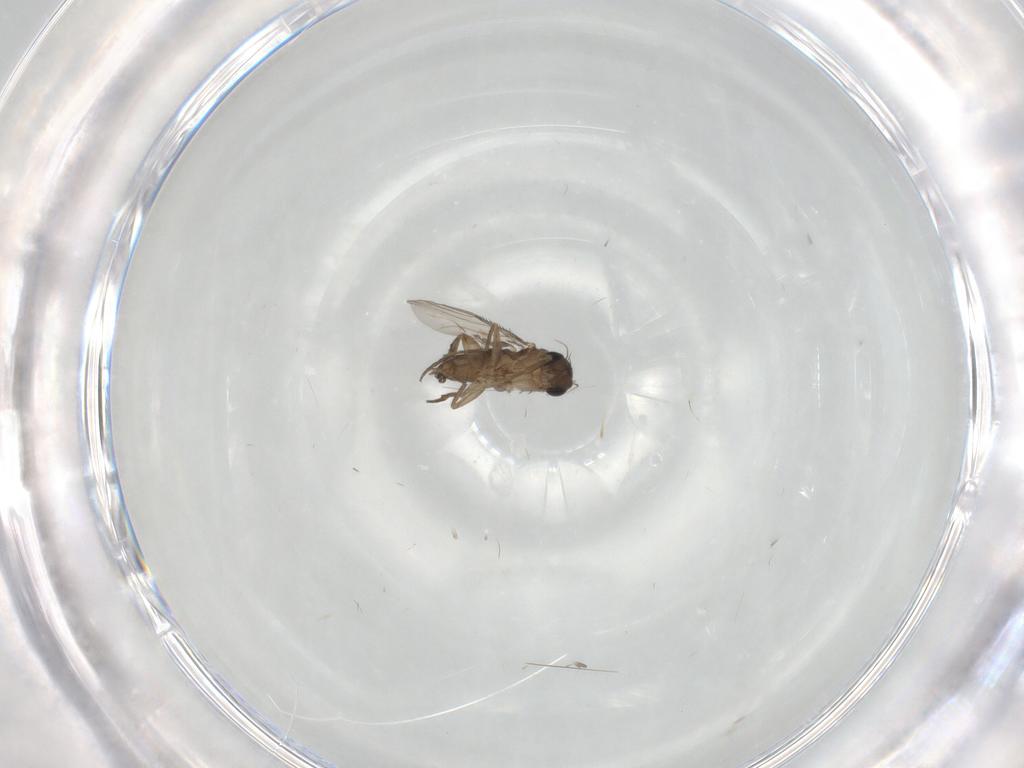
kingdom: Animalia
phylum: Arthropoda
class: Insecta
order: Diptera
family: Phoridae
